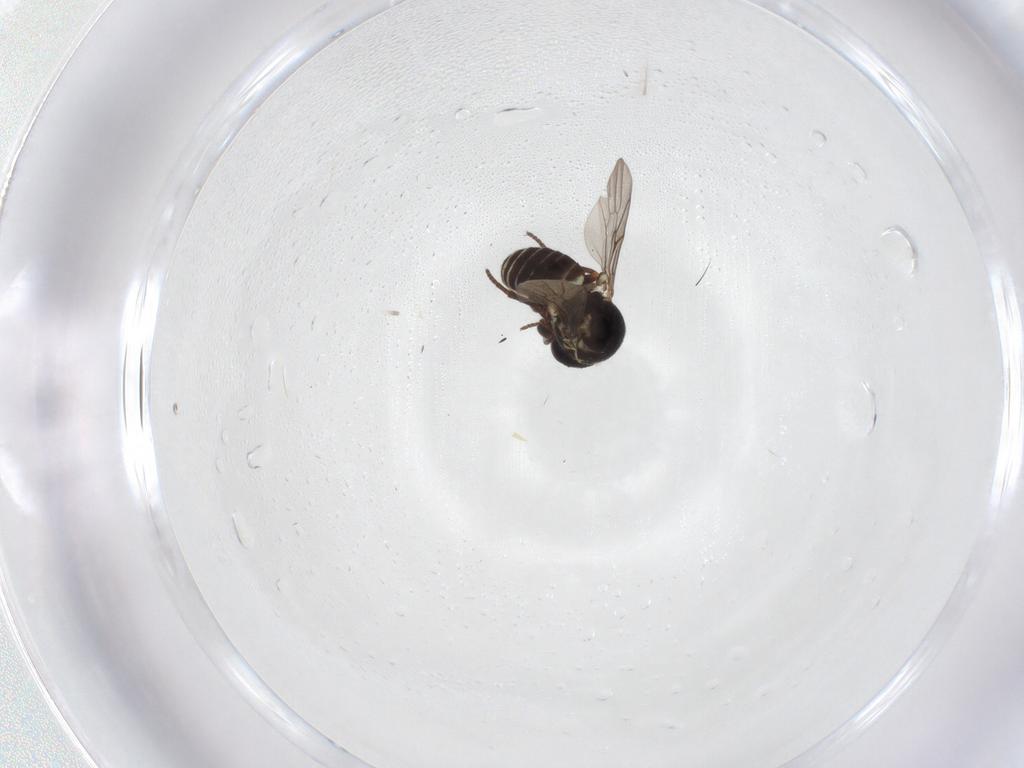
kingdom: Animalia
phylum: Arthropoda
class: Insecta
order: Diptera
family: Mythicomyiidae
